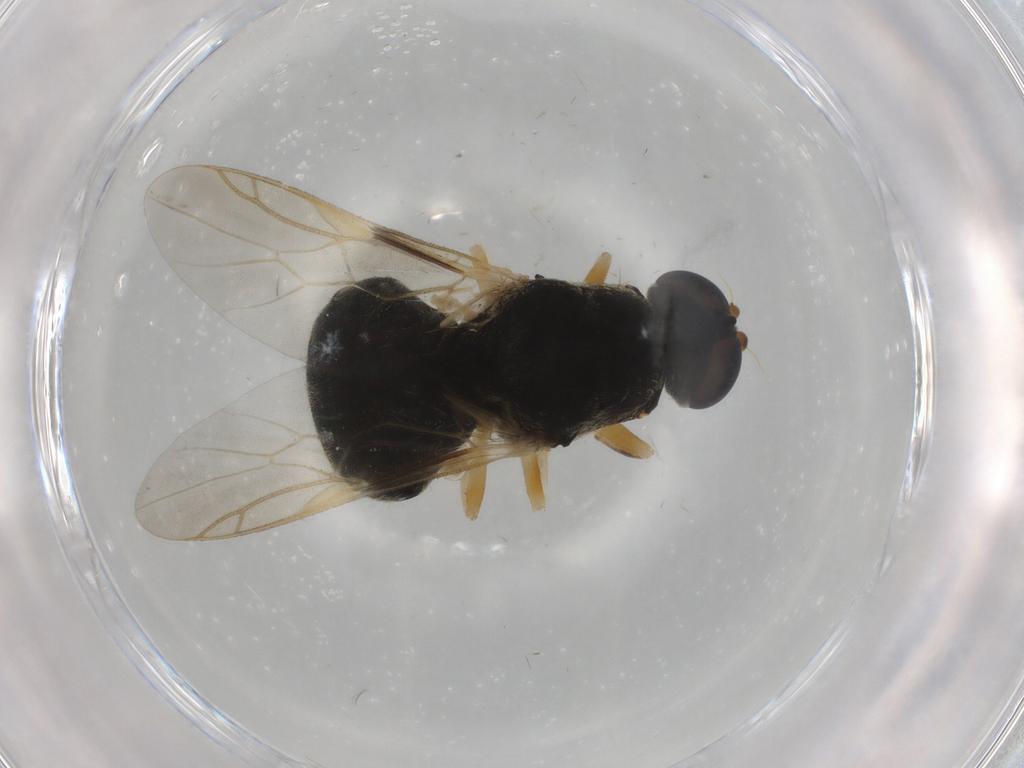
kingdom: Animalia
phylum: Arthropoda
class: Insecta
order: Diptera
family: Stratiomyidae
